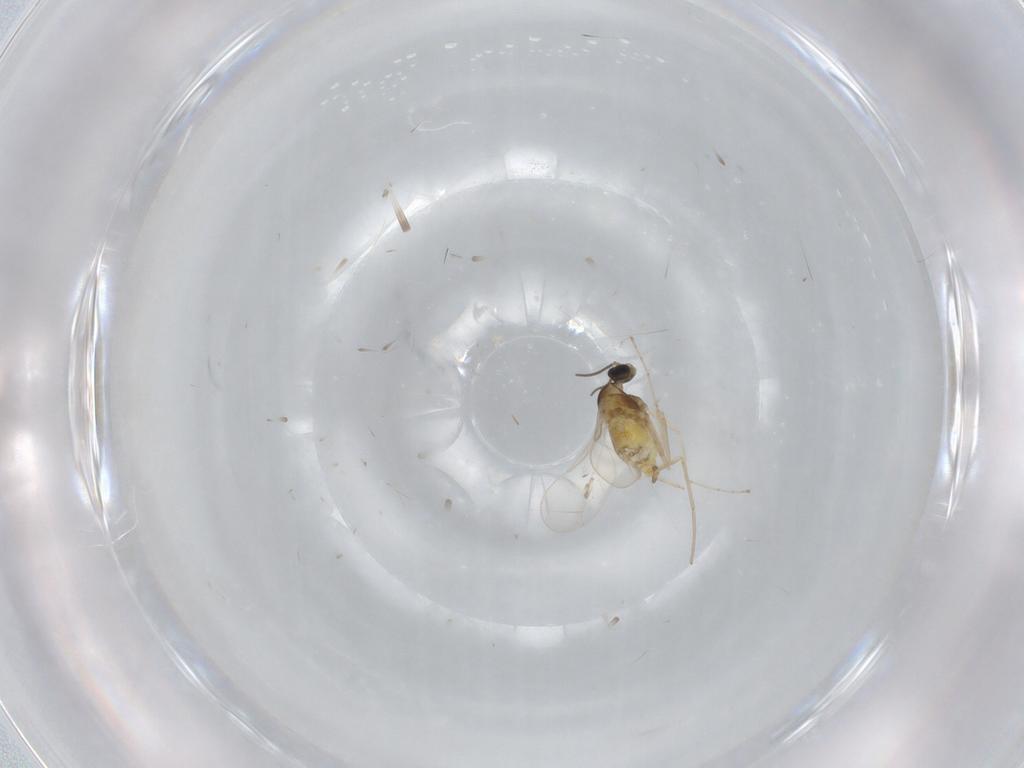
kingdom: Animalia
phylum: Arthropoda
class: Insecta
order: Diptera
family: Cecidomyiidae
